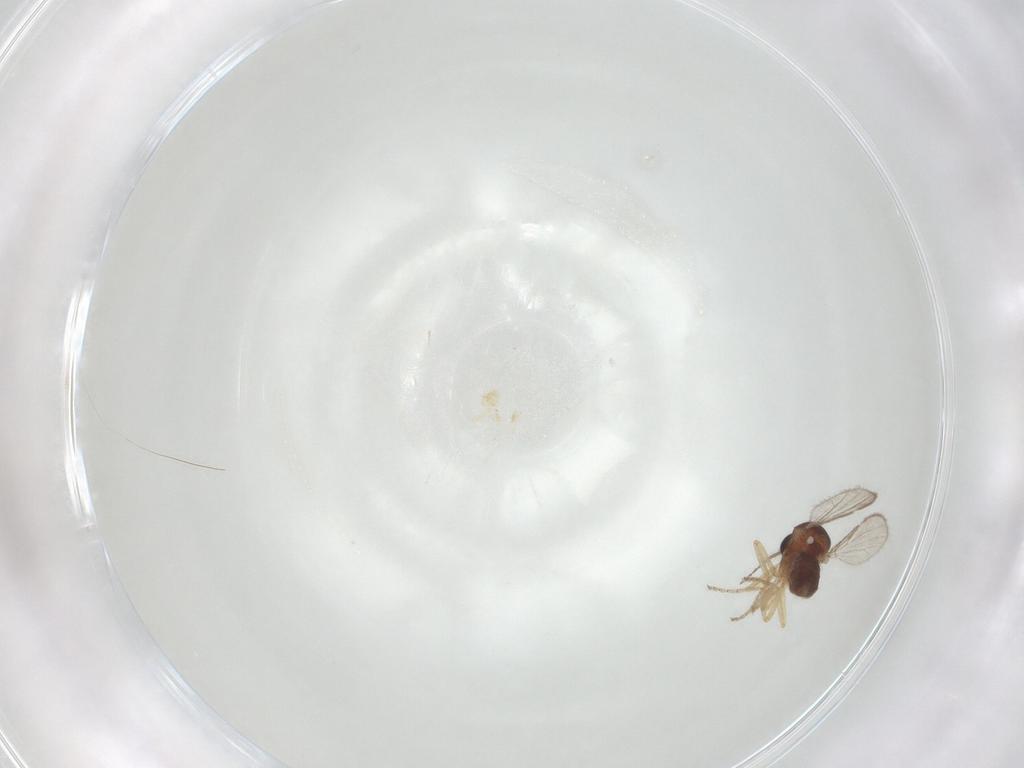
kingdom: Animalia
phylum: Arthropoda
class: Insecta
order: Diptera
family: Ceratopogonidae
